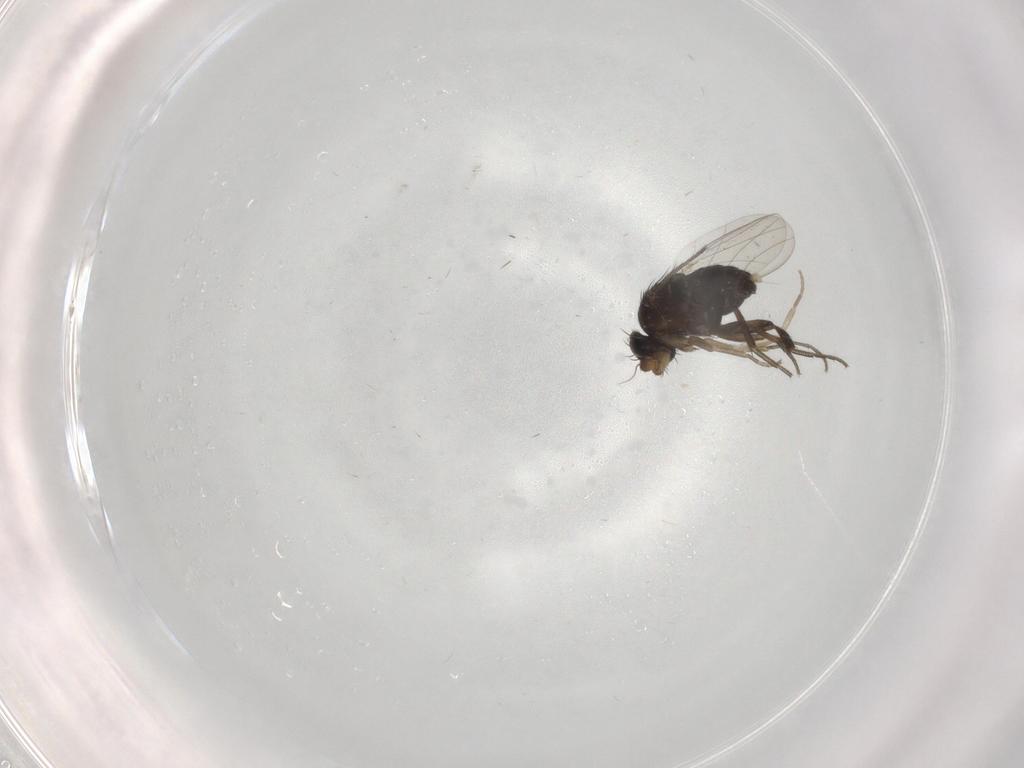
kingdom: Animalia
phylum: Arthropoda
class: Insecta
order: Diptera
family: Phoridae
